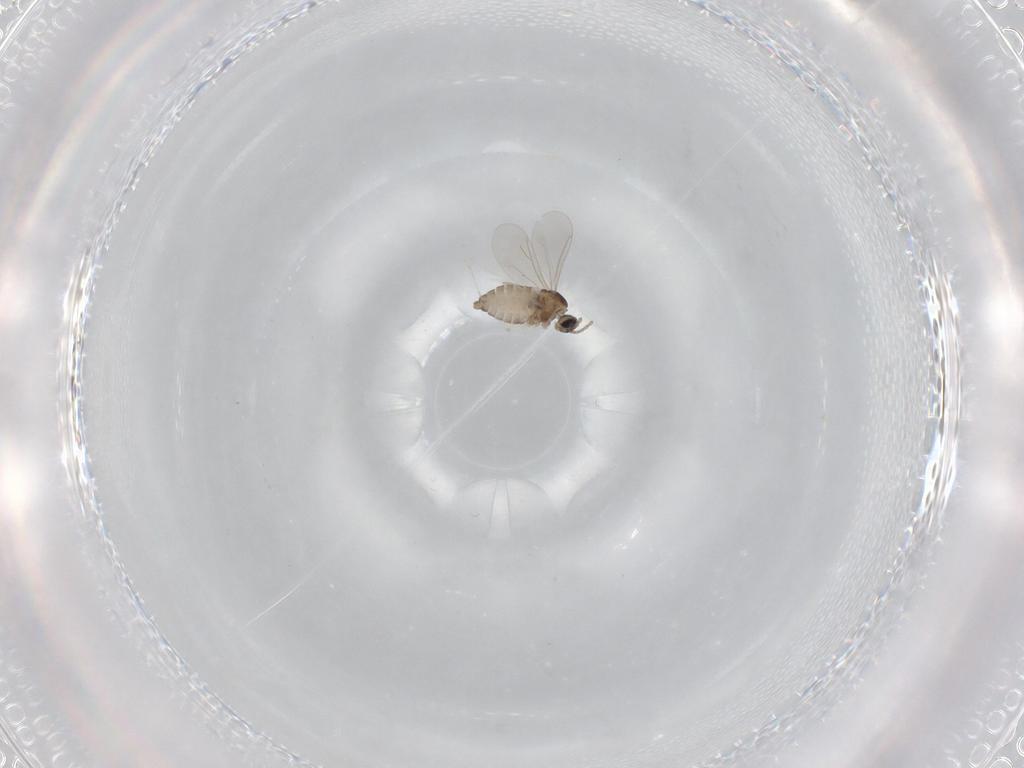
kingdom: Animalia
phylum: Arthropoda
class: Insecta
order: Diptera
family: Cecidomyiidae
